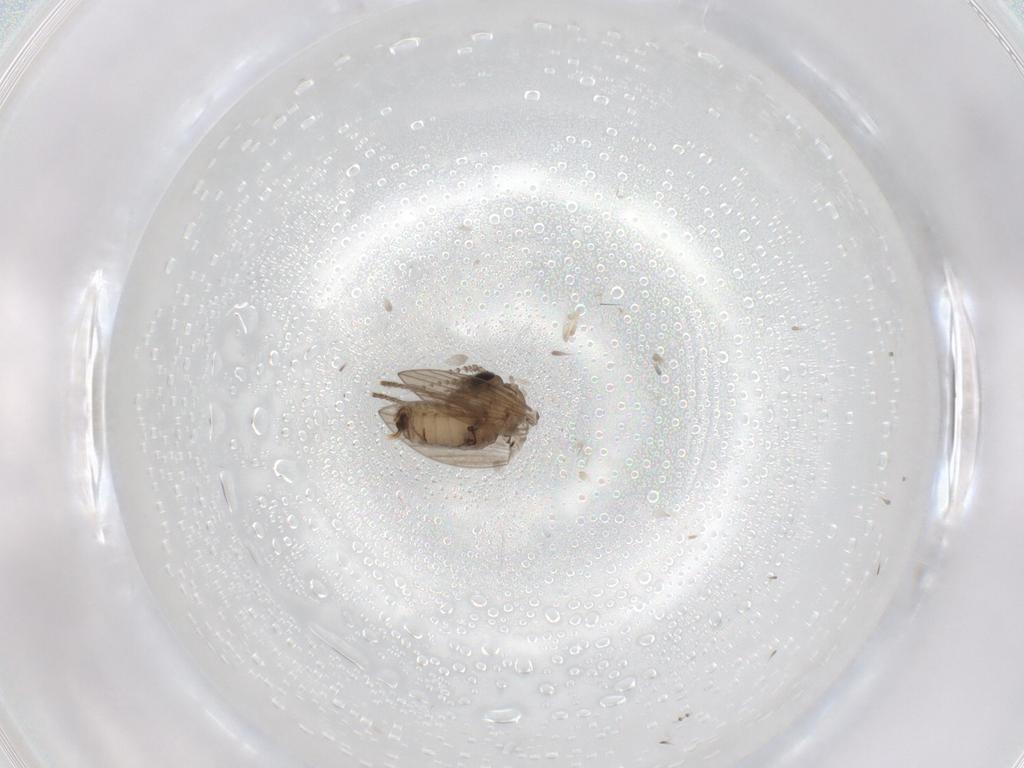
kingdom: Animalia
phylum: Arthropoda
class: Insecta
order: Diptera
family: Psychodidae
